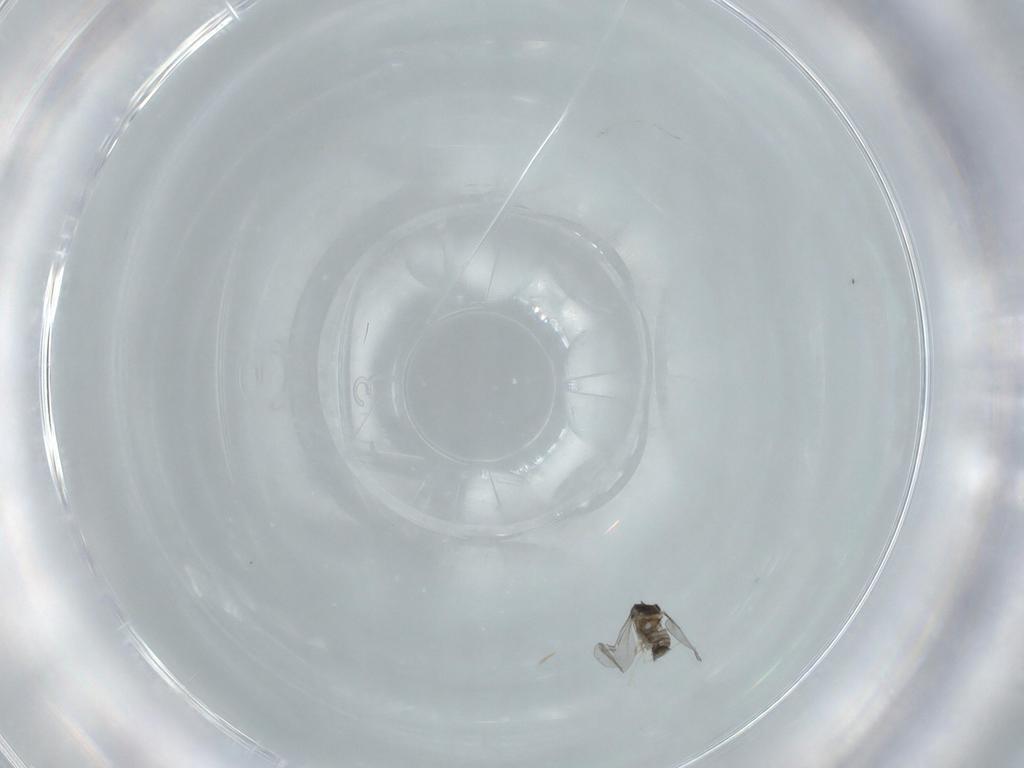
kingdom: Animalia
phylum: Arthropoda
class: Insecta
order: Diptera
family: Cecidomyiidae
